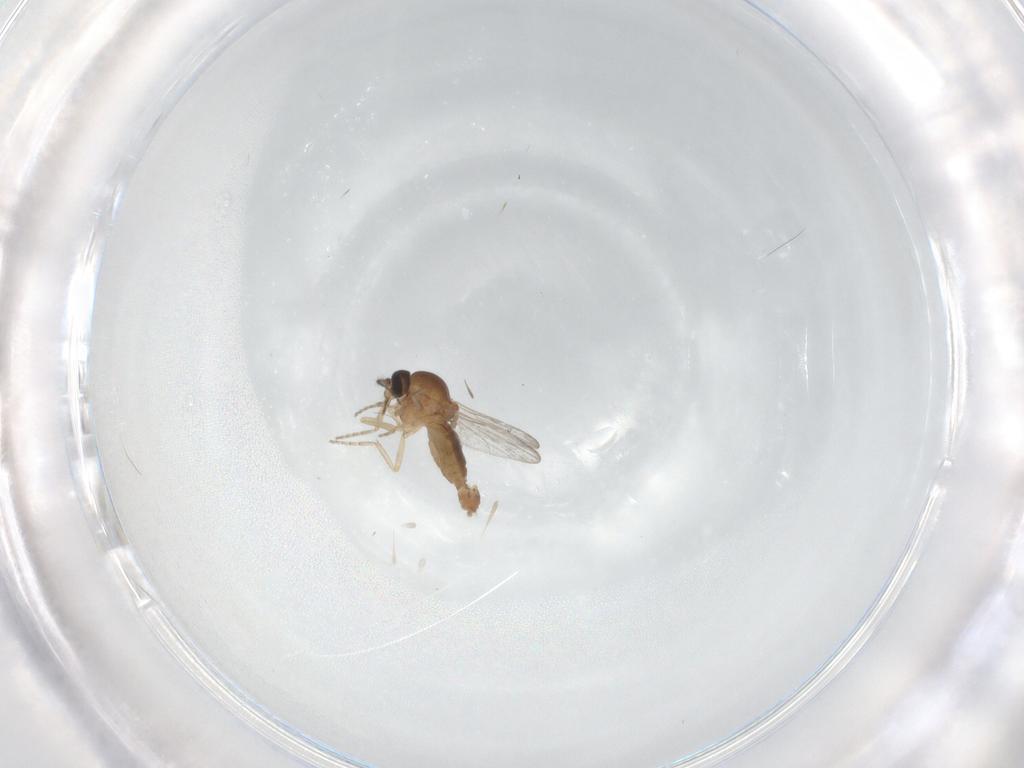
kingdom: Animalia
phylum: Arthropoda
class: Insecta
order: Diptera
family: Ceratopogonidae
